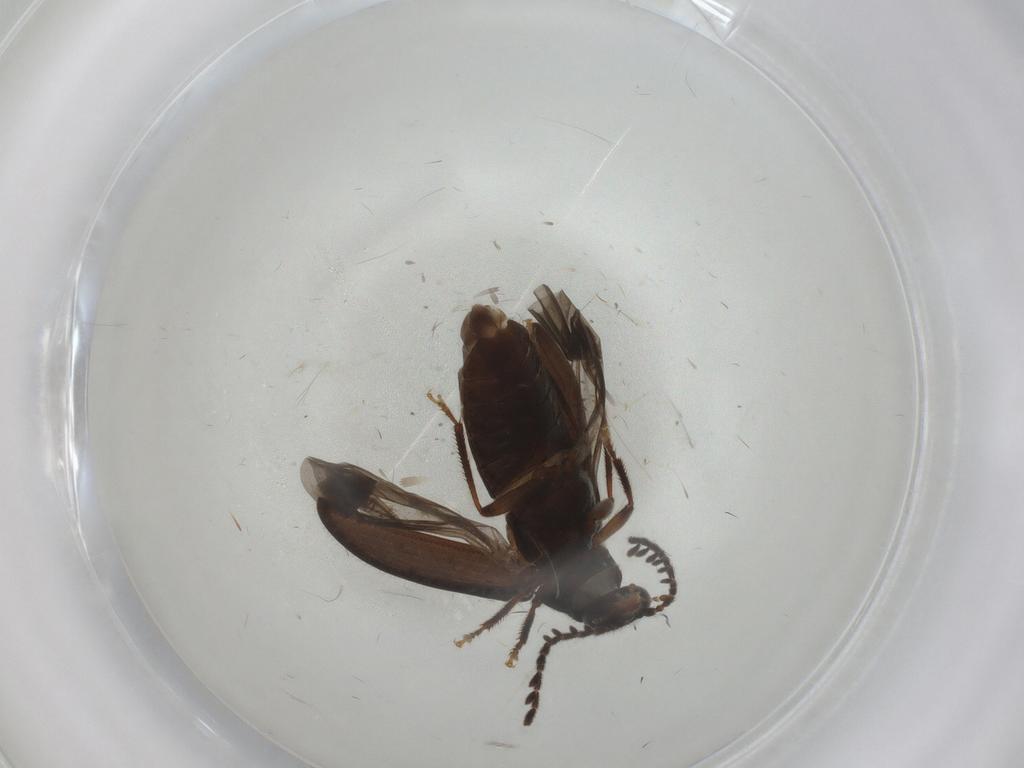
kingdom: Animalia
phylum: Arthropoda
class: Insecta
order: Coleoptera
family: Ptilodactylidae
